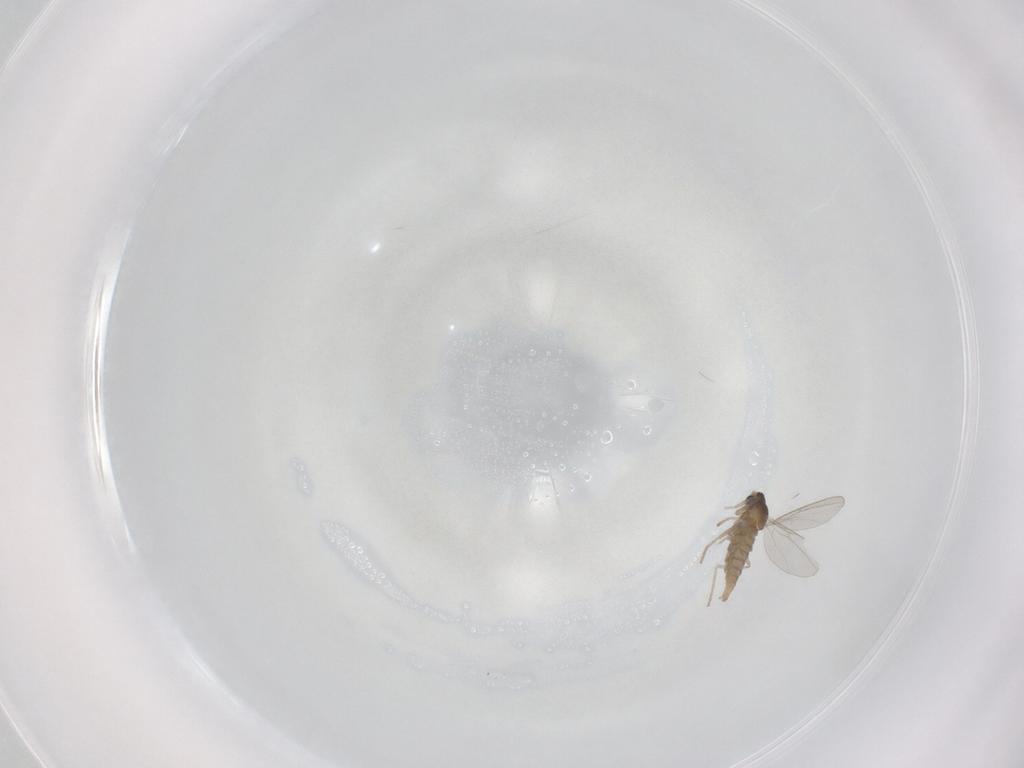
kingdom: Animalia
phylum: Arthropoda
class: Insecta
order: Diptera
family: Cecidomyiidae
